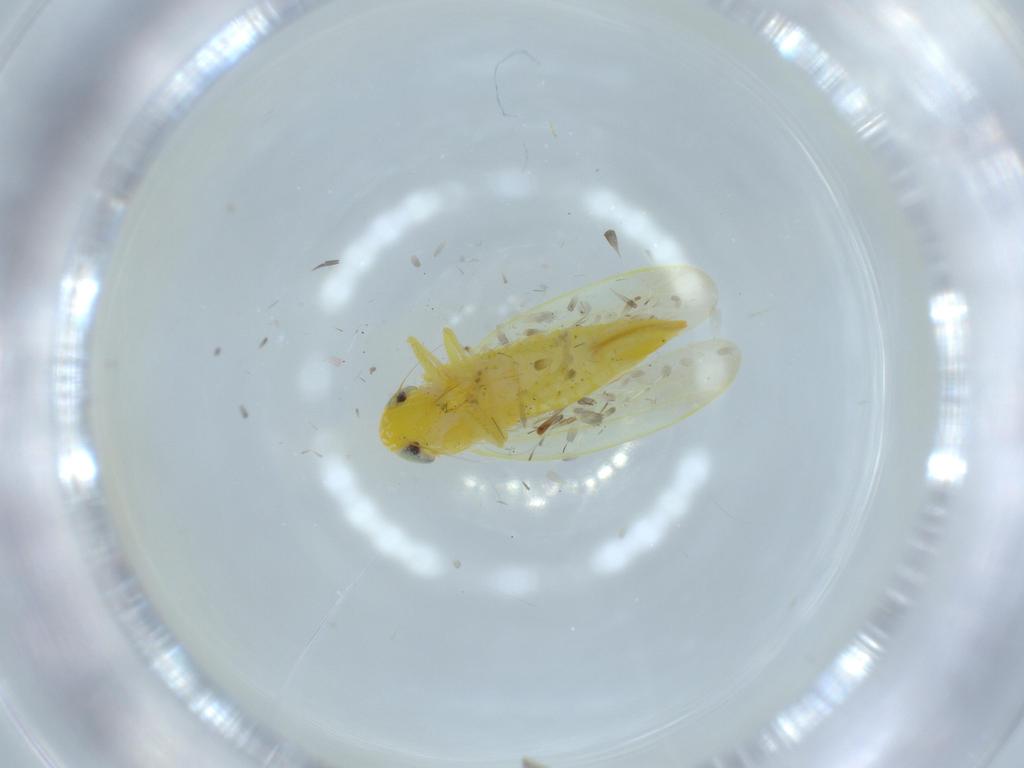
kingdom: Animalia
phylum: Arthropoda
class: Insecta
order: Hemiptera
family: Cicadellidae
